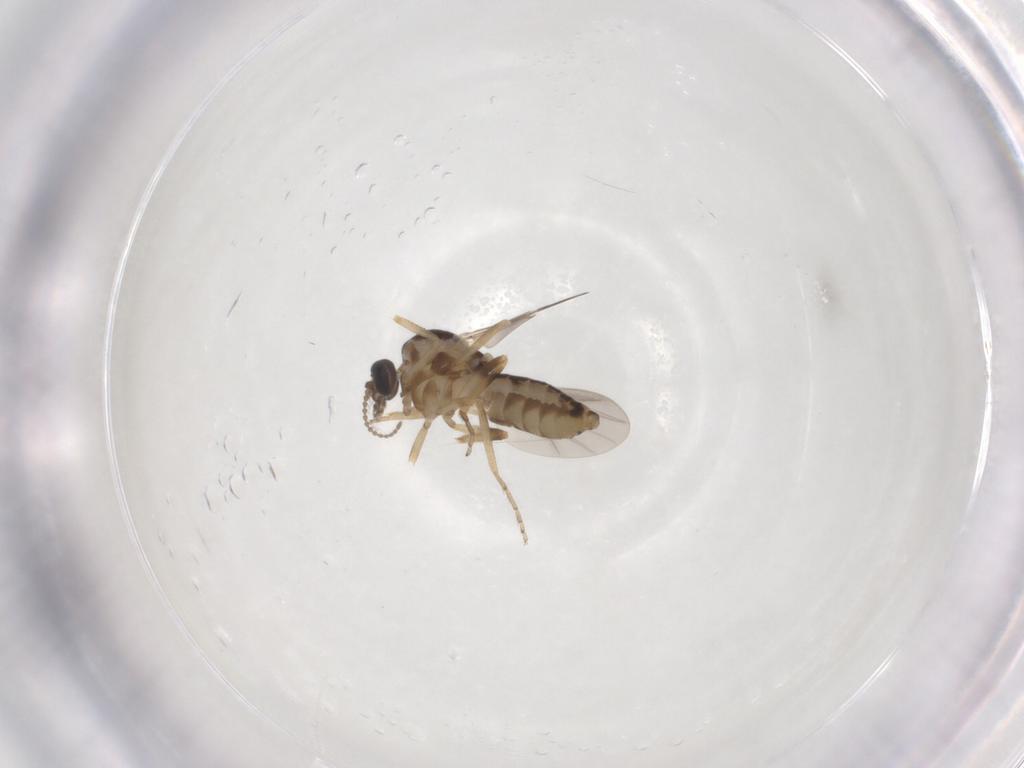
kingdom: Animalia
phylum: Arthropoda
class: Insecta
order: Diptera
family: Cecidomyiidae
